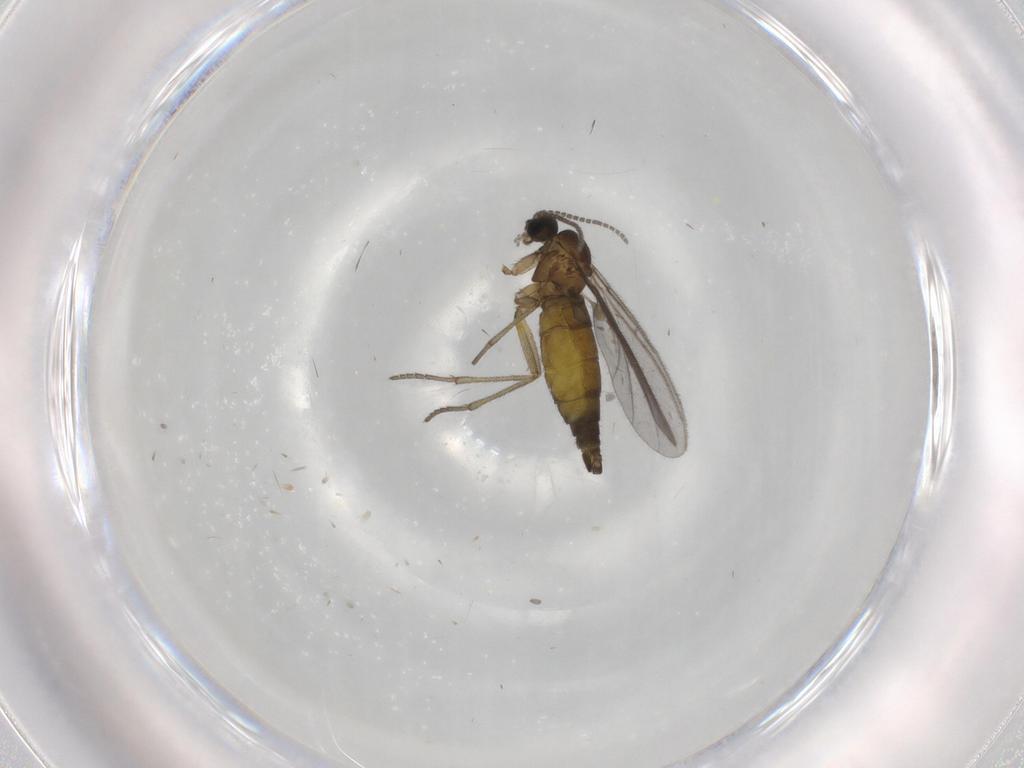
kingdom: Animalia
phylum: Arthropoda
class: Insecta
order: Diptera
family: Sciaridae
